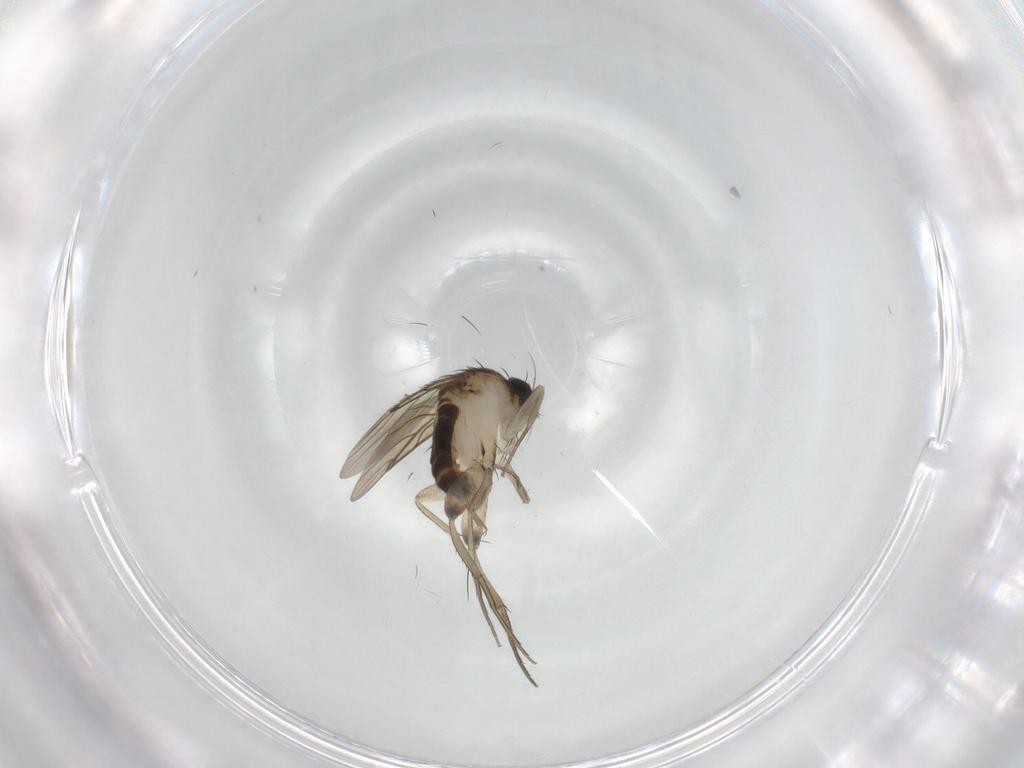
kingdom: Animalia
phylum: Arthropoda
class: Insecta
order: Diptera
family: Phoridae
